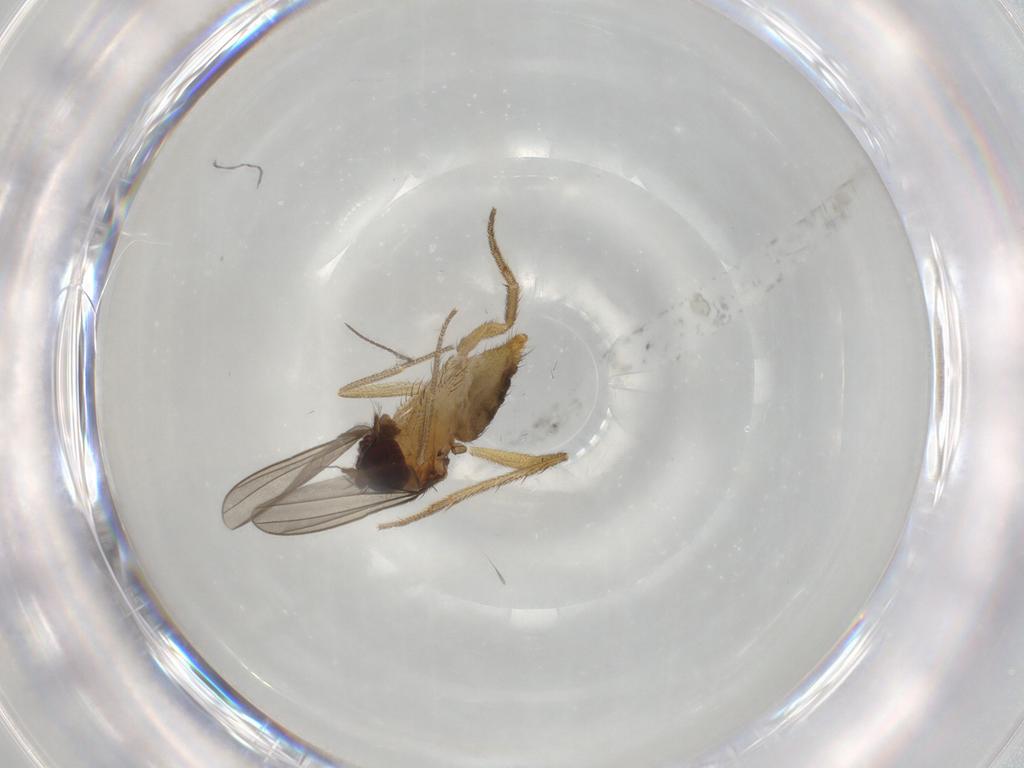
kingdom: Animalia
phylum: Arthropoda
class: Insecta
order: Diptera
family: Dolichopodidae
